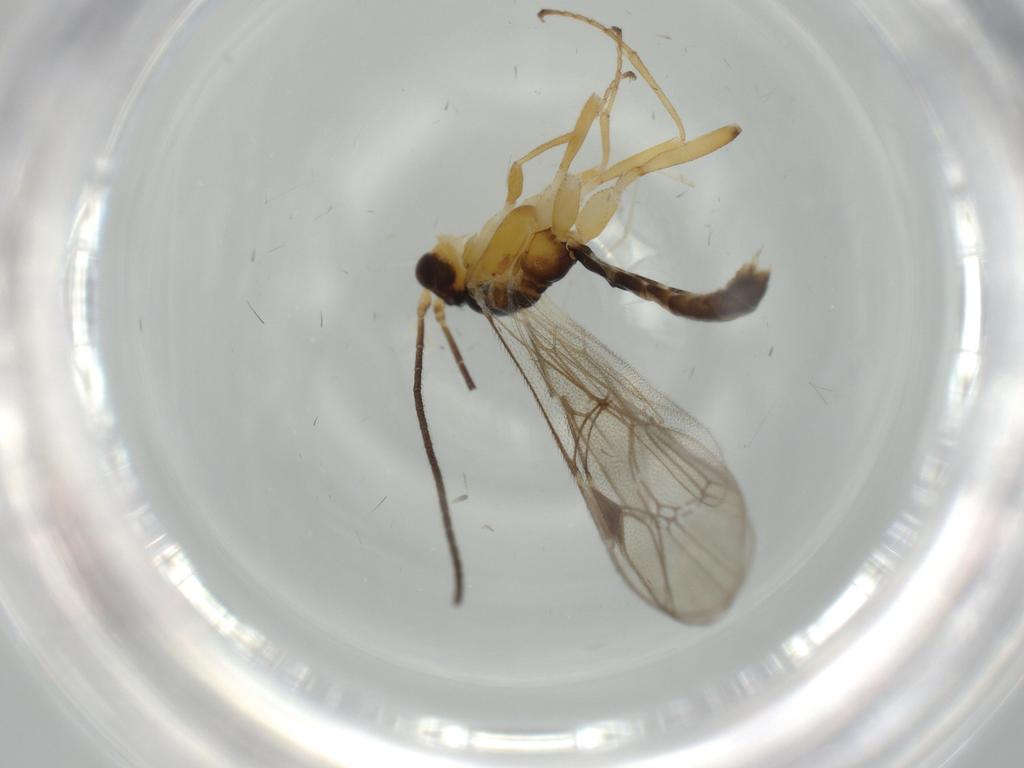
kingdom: Animalia
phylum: Arthropoda
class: Insecta
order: Hymenoptera
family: Ichneumonidae
